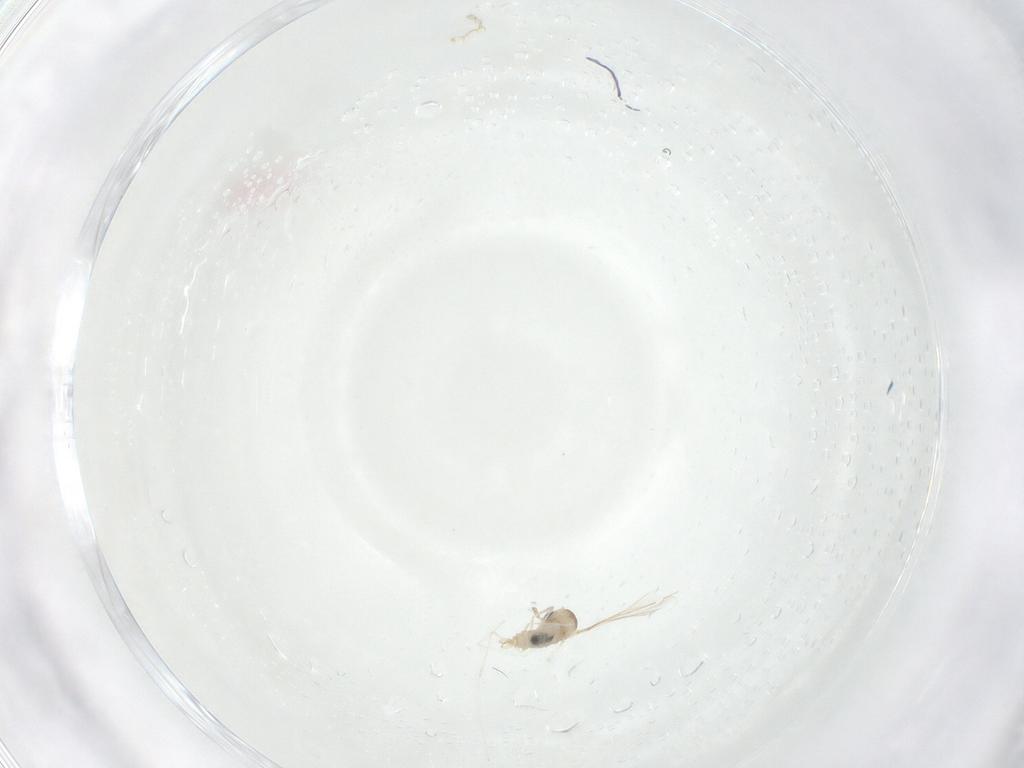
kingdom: Animalia
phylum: Arthropoda
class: Insecta
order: Diptera
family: Cecidomyiidae
